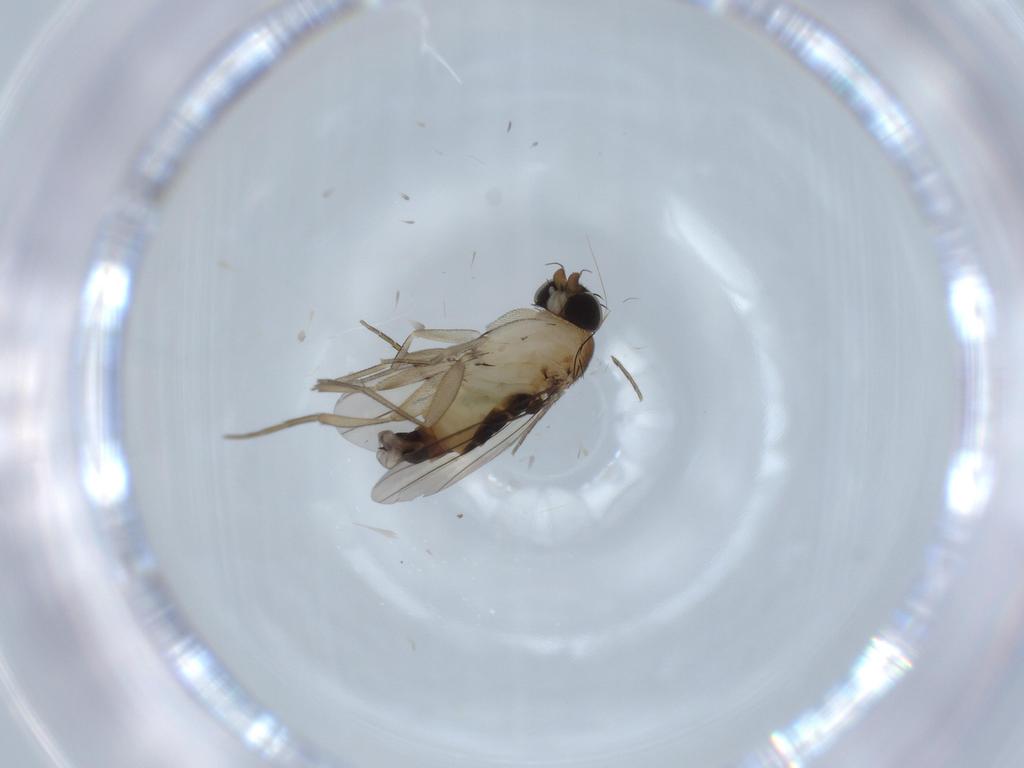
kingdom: Animalia
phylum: Arthropoda
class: Insecta
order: Diptera
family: Phoridae
